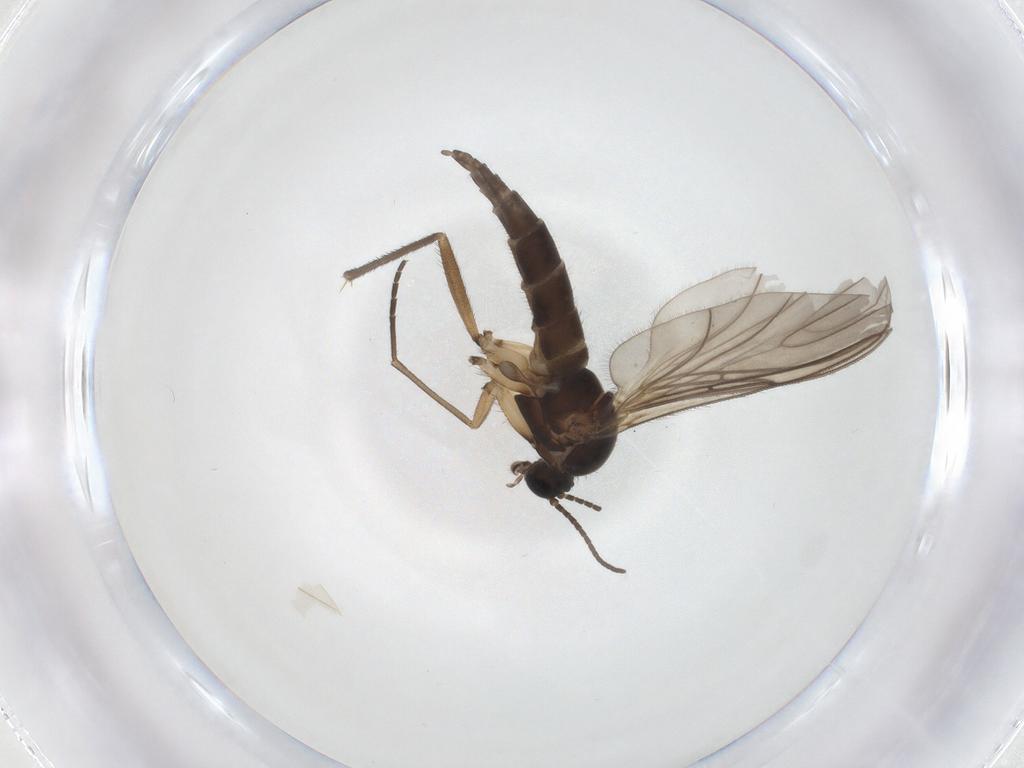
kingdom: Animalia
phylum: Arthropoda
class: Insecta
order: Diptera
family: Sciaridae
